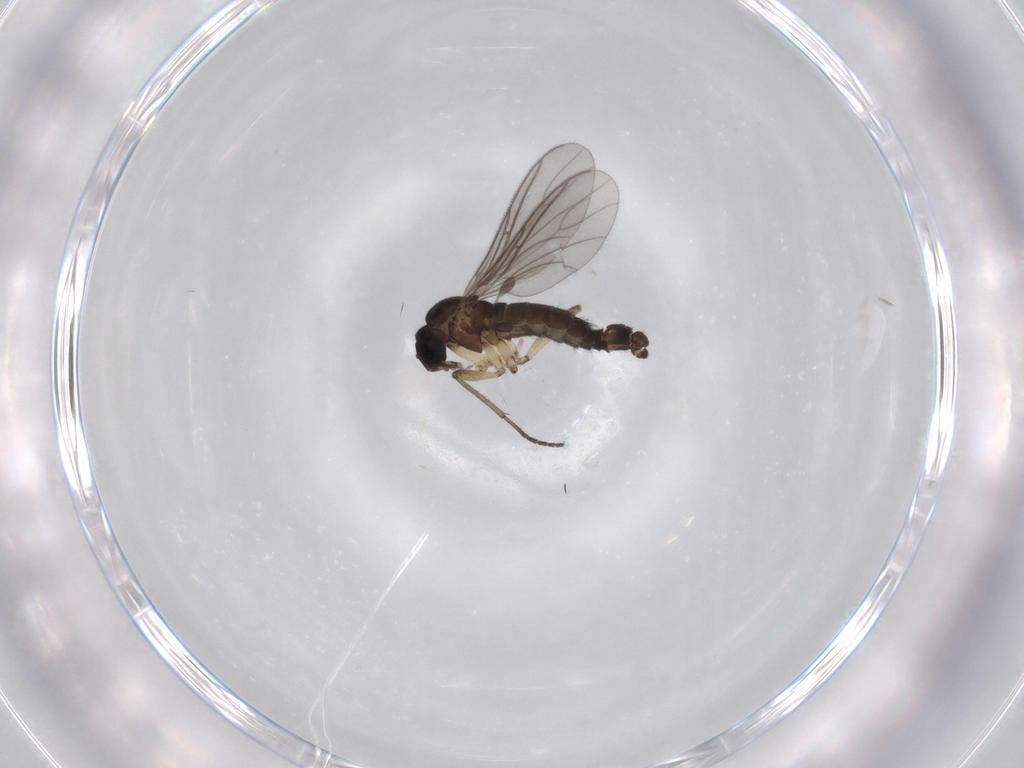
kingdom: Animalia
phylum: Arthropoda
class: Insecta
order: Diptera
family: Sciaridae
